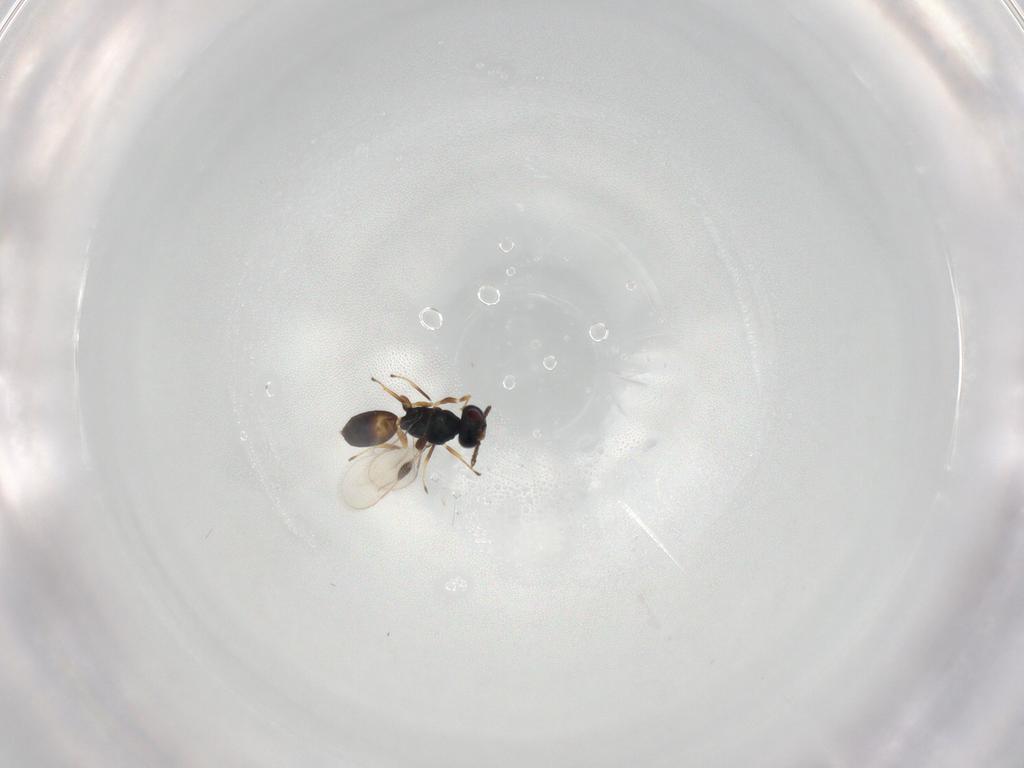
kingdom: Animalia
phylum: Arthropoda
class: Insecta
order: Hymenoptera
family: Pteromalidae
